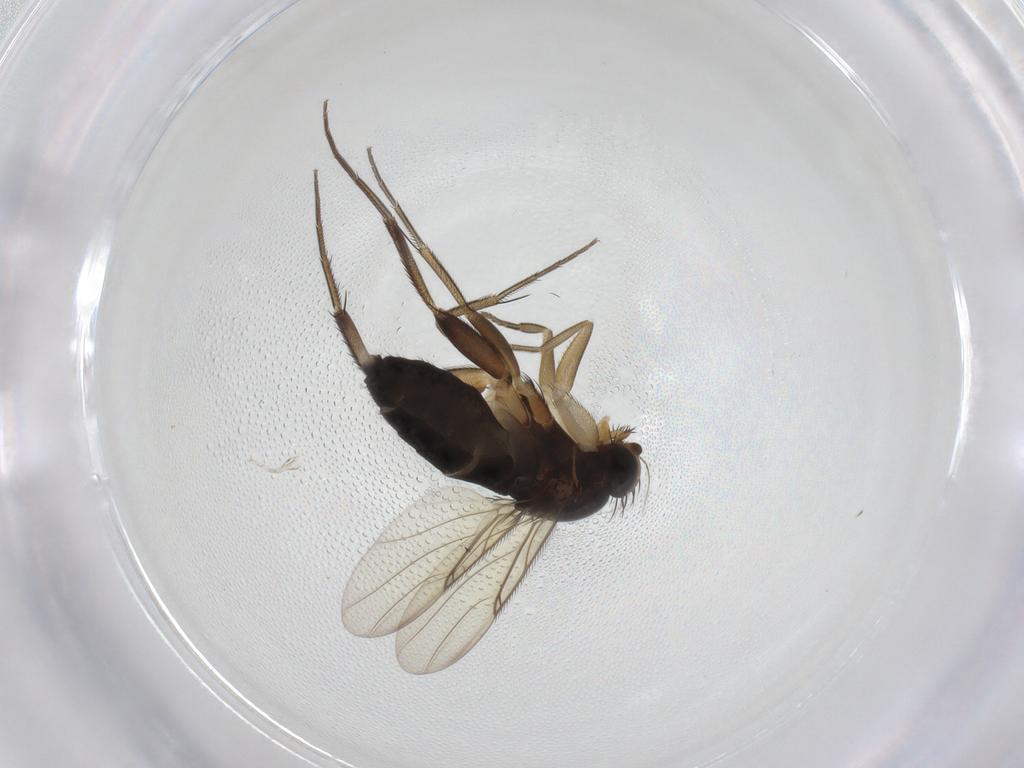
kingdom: Animalia
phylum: Arthropoda
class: Insecta
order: Diptera
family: Phoridae
